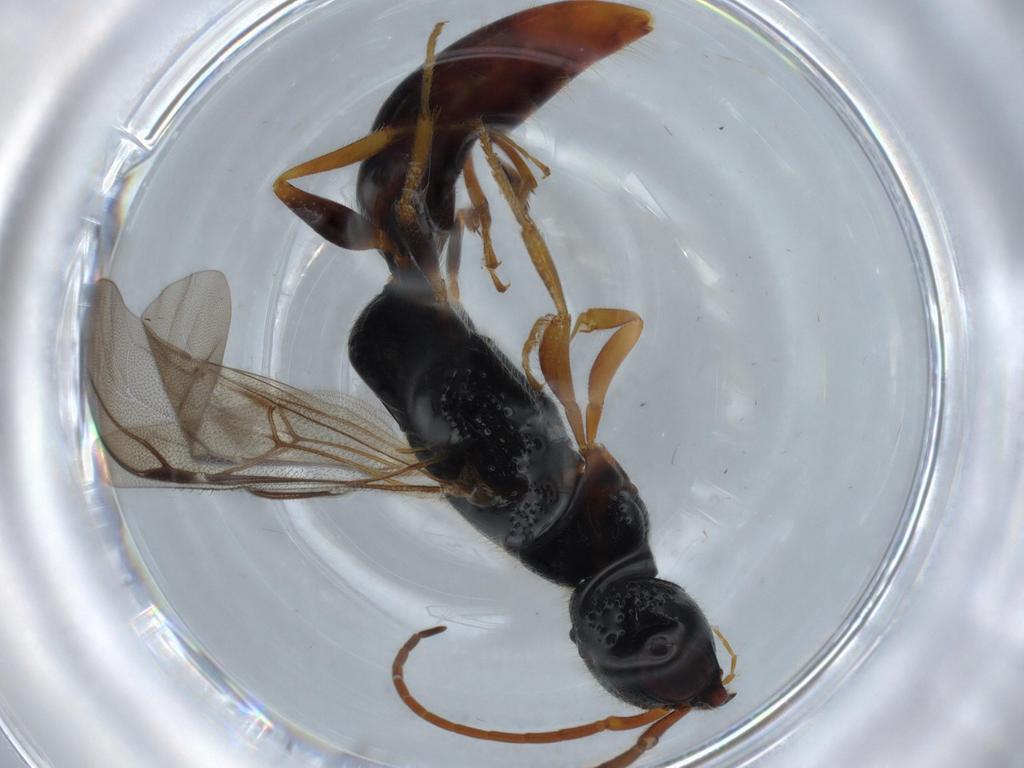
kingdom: Animalia
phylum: Arthropoda
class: Insecta
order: Hymenoptera
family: Bethylidae
